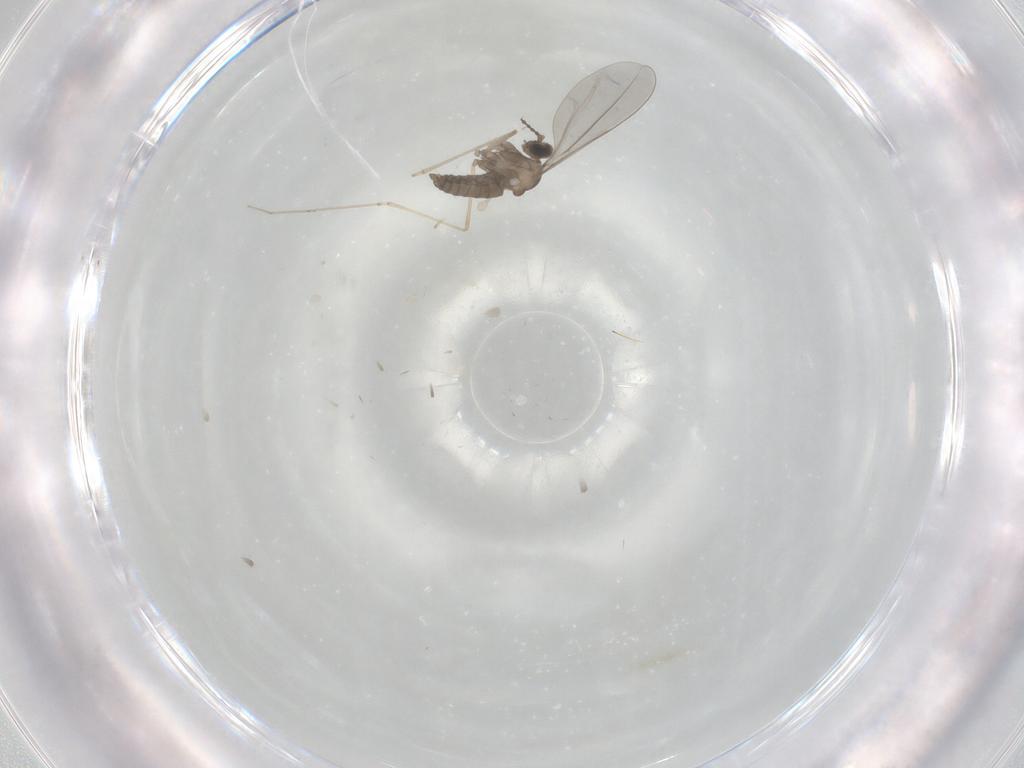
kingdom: Animalia
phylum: Arthropoda
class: Insecta
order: Diptera
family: Cecidomyiidae
